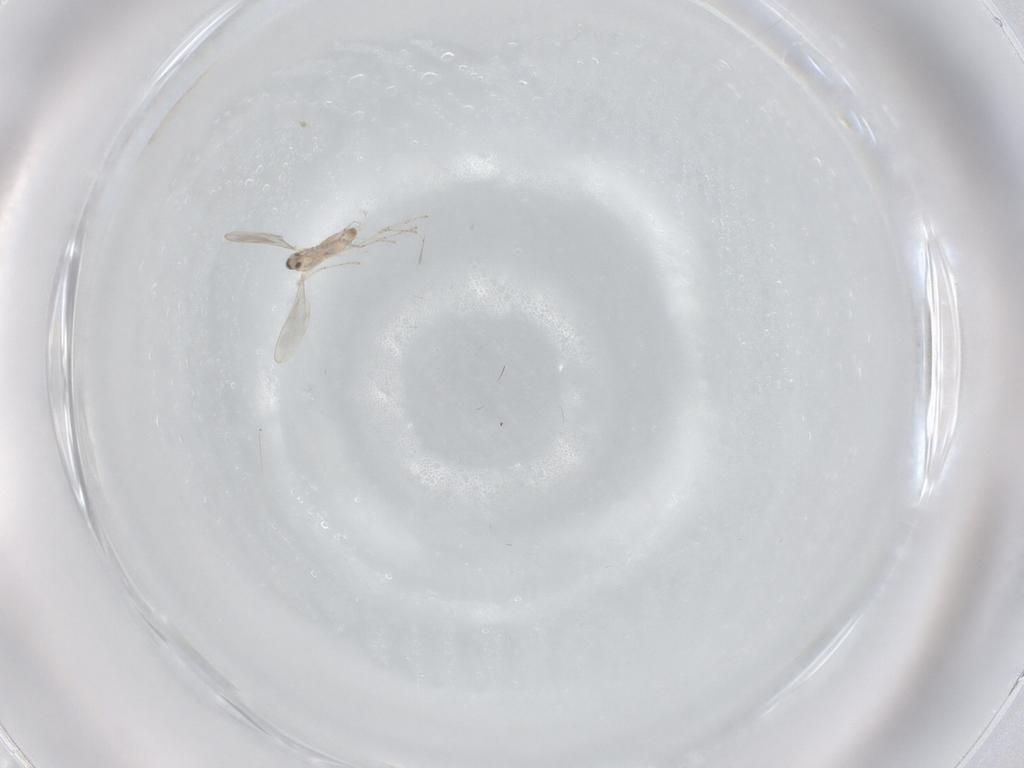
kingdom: Animalia
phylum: Arthropoda
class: Insecta
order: Diptera
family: Cecidomyiidae
